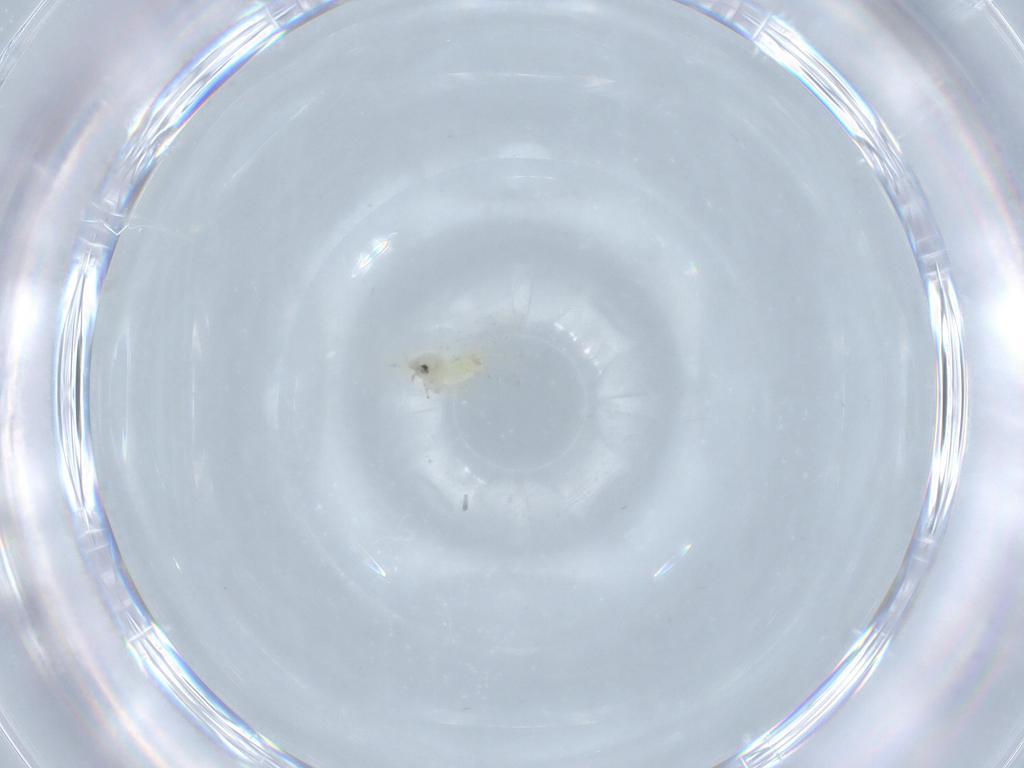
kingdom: Animalia
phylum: Arthropoda
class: Insecta
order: Hemiptera
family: Aleyrodidae
